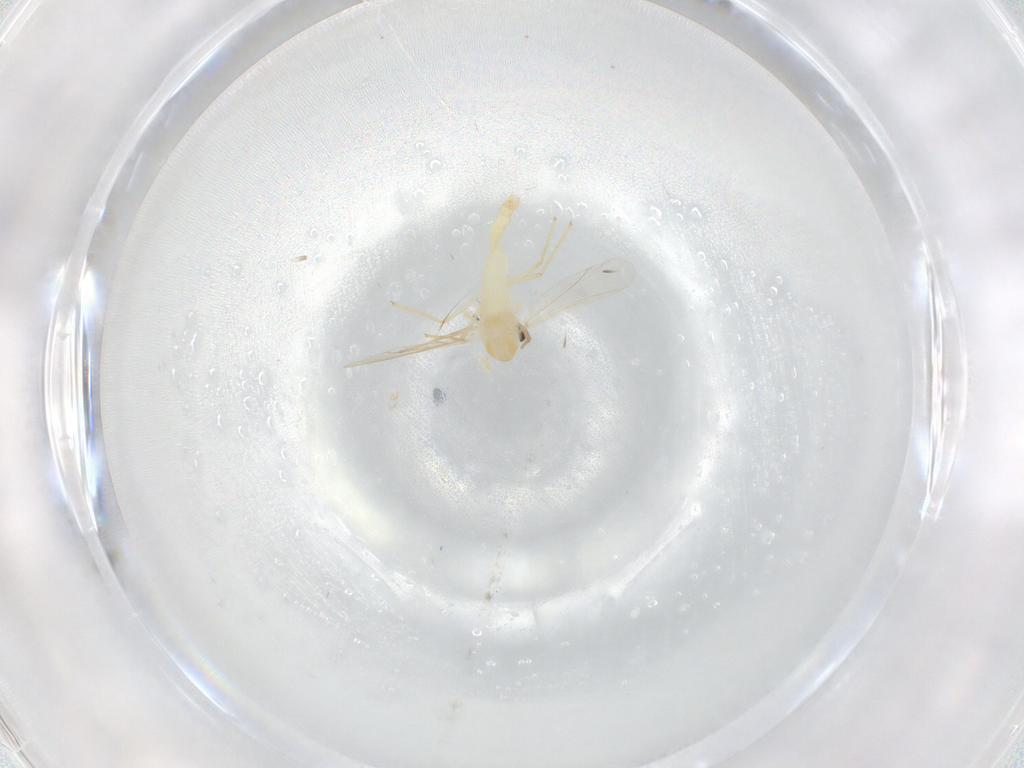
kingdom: Animalia
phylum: Arthropoda
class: Insecta
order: Diptera
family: Chironomidae
